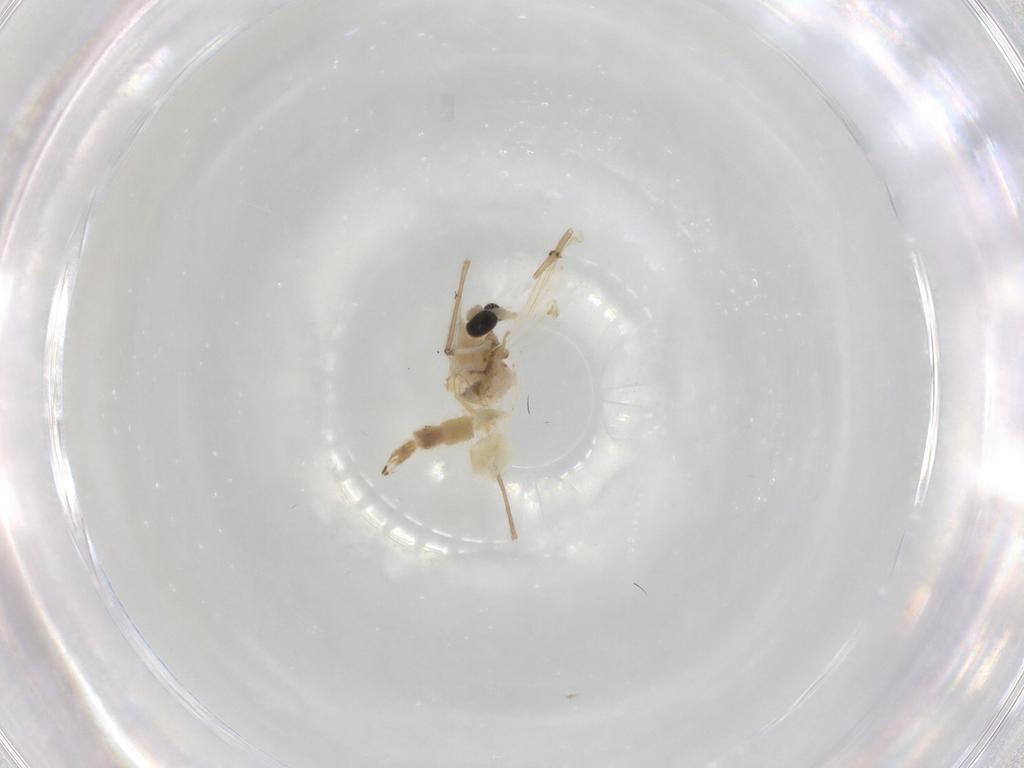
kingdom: Animalia
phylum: Arthropoda
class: Insecta
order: Diptera
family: Chironomidae
